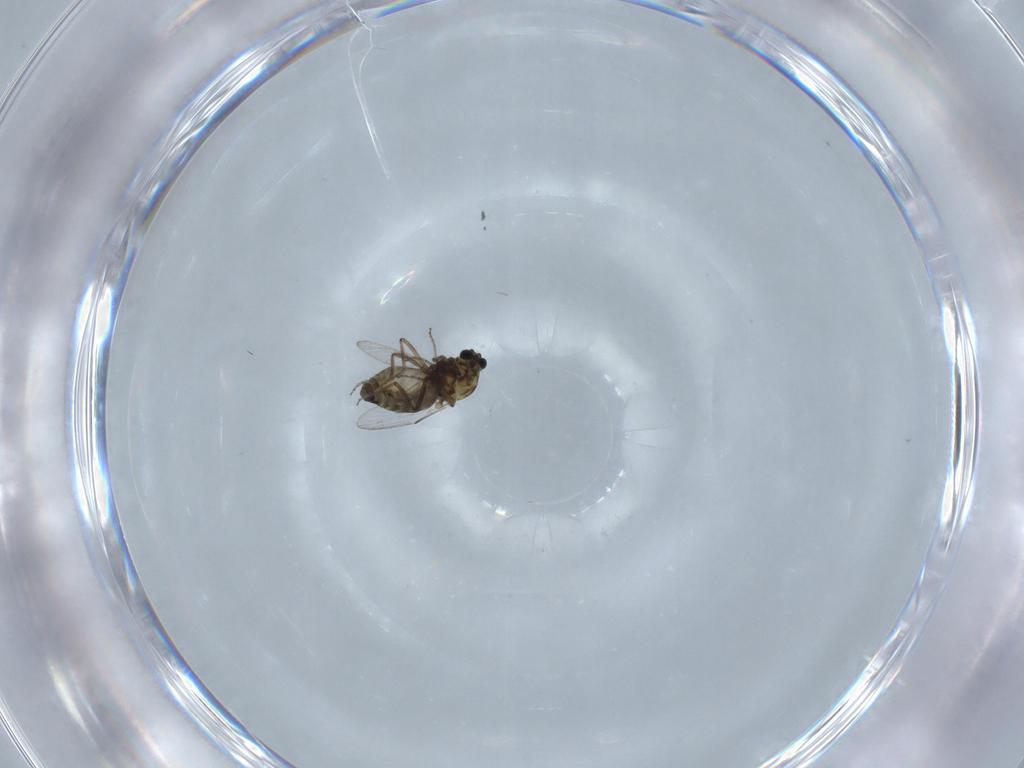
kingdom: Animalia
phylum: Arthropoda
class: Insecta
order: Diptera
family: Ceratopogonidae
